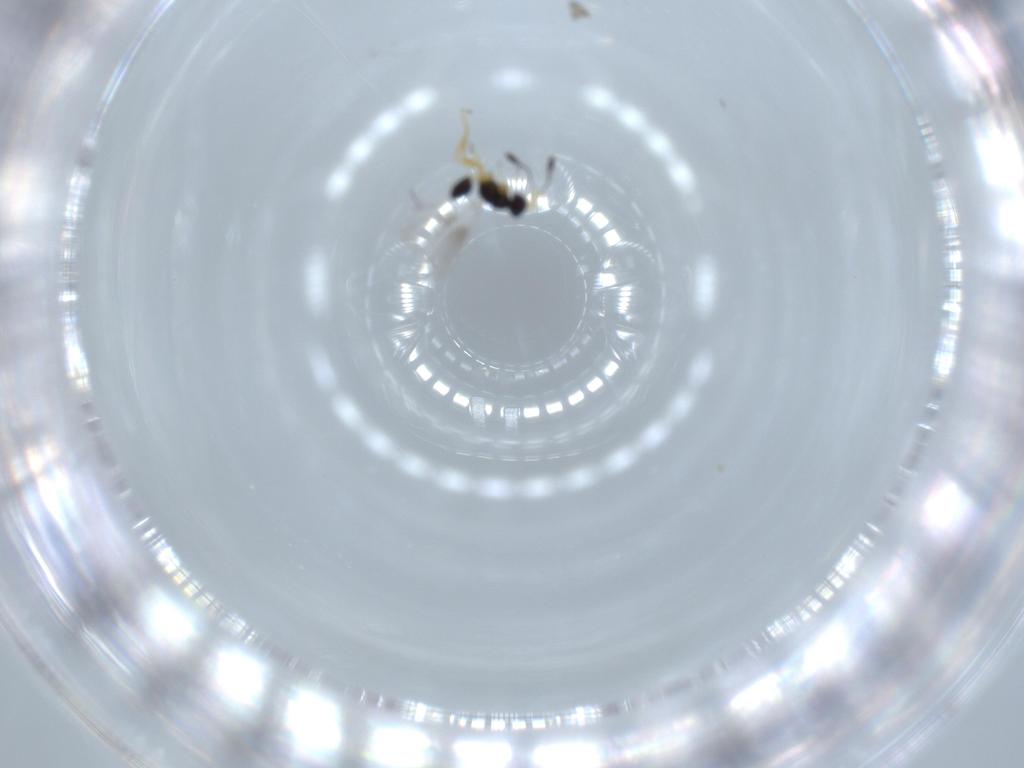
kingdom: Animalia
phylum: Arthropoda
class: Insecta
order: Hymenoptera
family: Mymaridae
